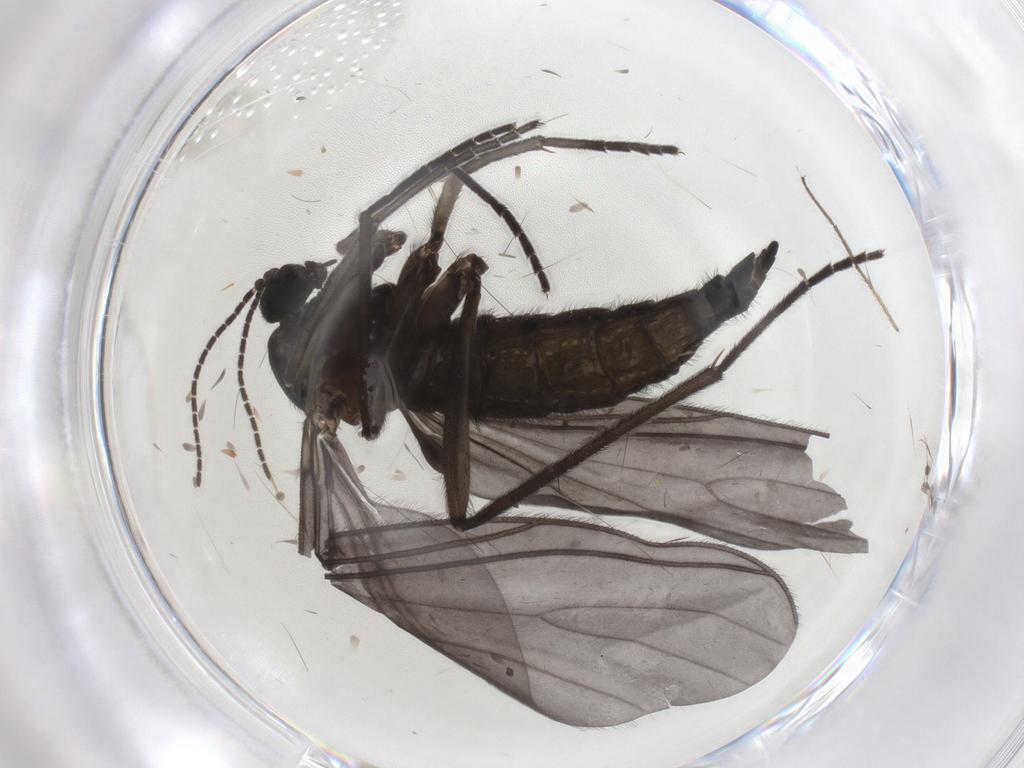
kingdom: Animalia
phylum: Arthropoda
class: Insecta
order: Diptera
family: Sciaridae
